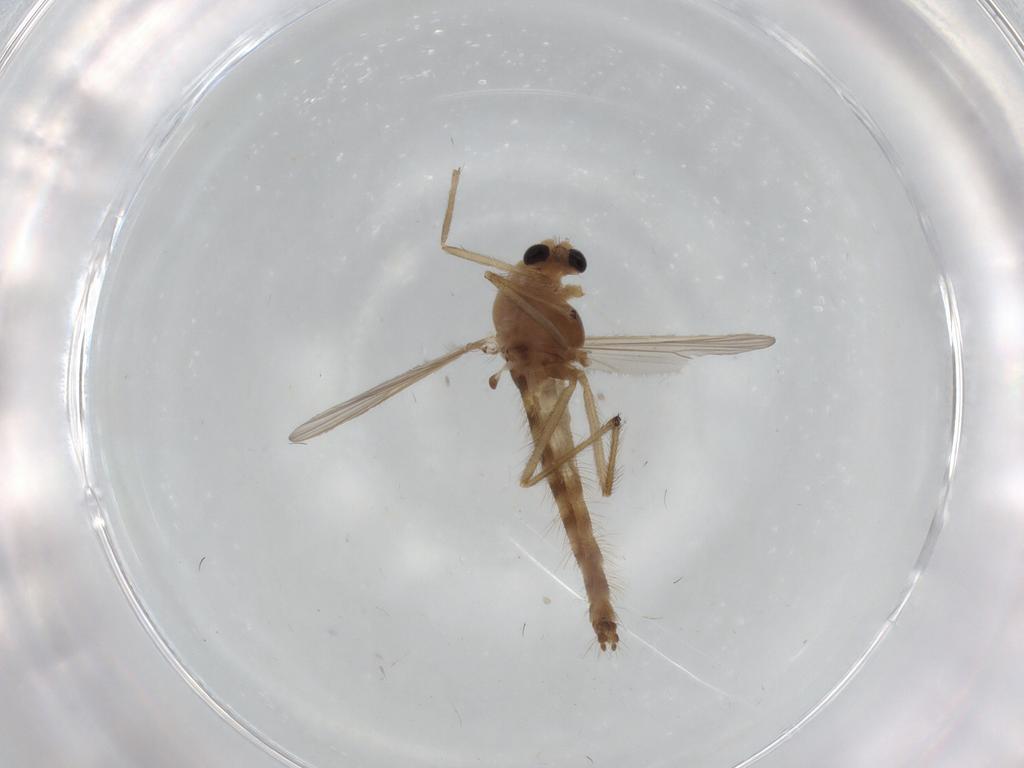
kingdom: Animalia
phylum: Arthropoda
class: Insecta
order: Diptera
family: Chironomidae
